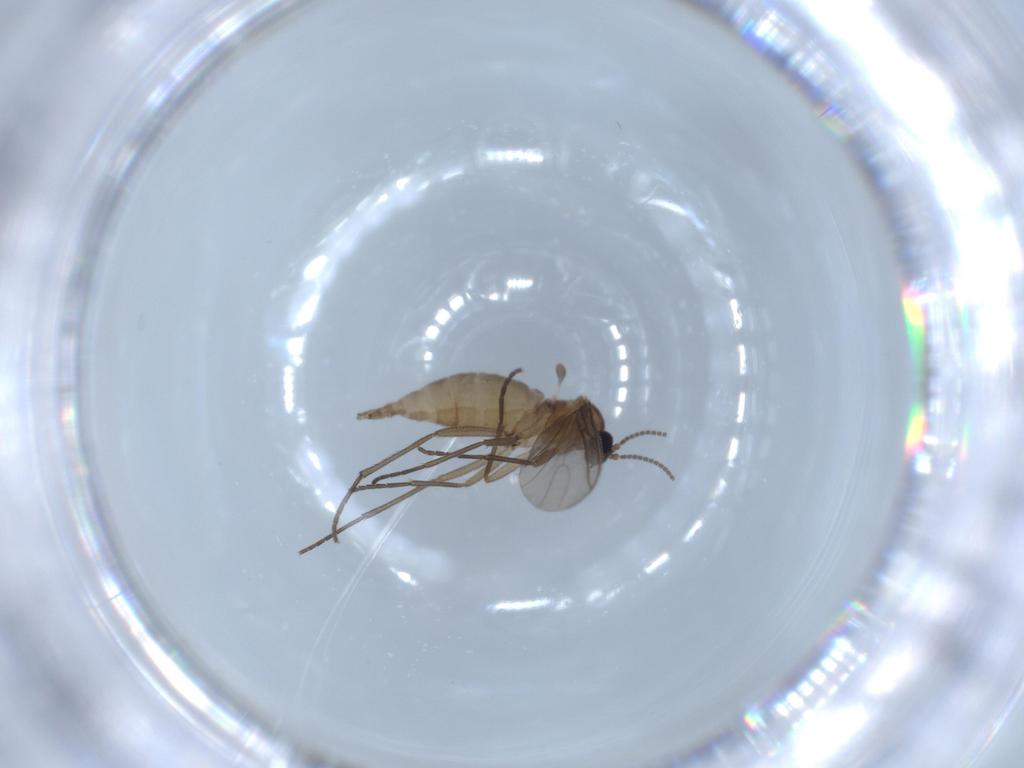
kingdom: Animalia
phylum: Arthropoda
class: Insecta
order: Diptera
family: Sciaridae
